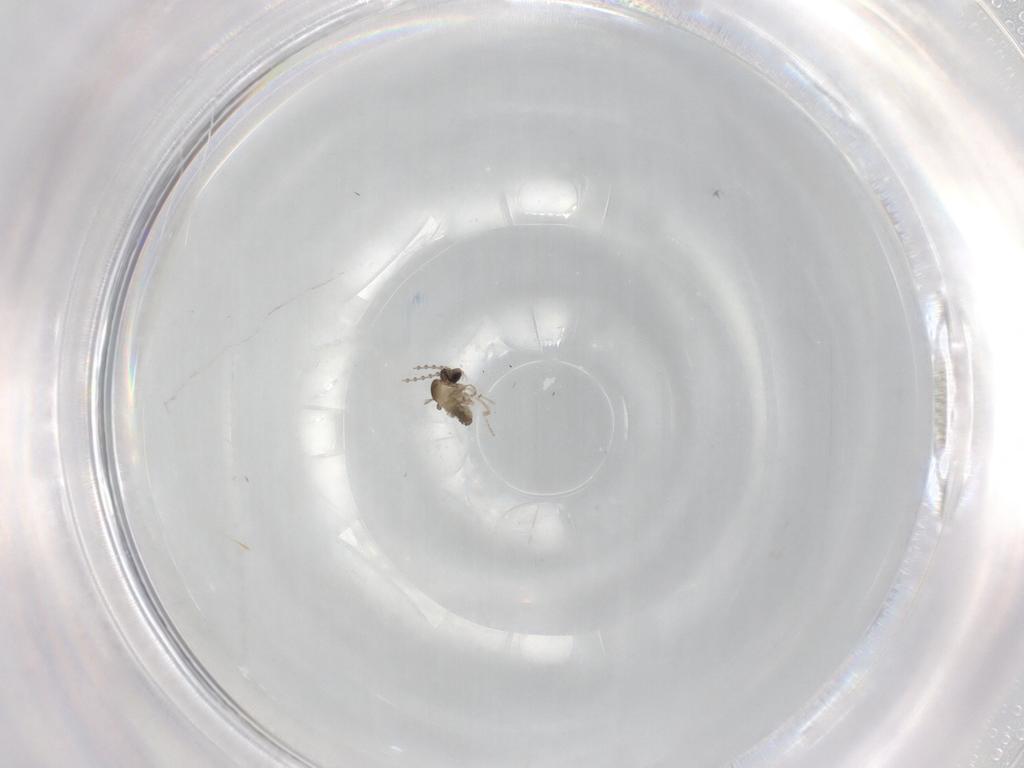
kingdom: Animalia
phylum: Arthropoda
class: Insecta
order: Diptera
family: Cecidomyiidae
